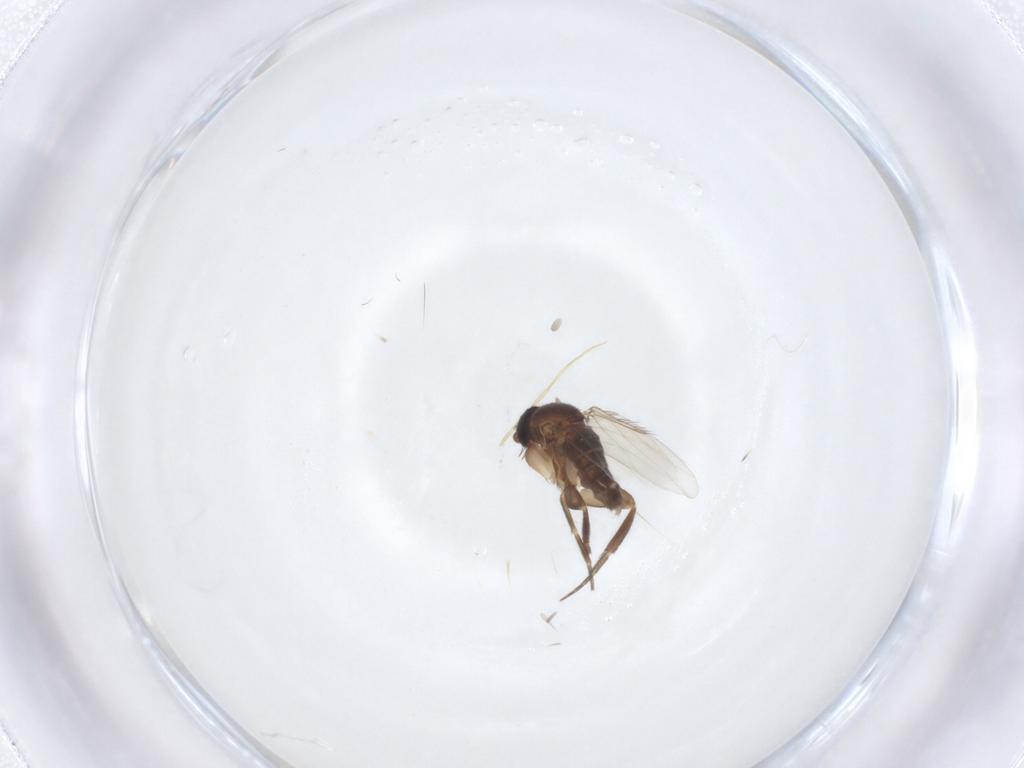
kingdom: Animalia
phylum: Arthropoda
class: Insecta
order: Diptera
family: Phoridae
